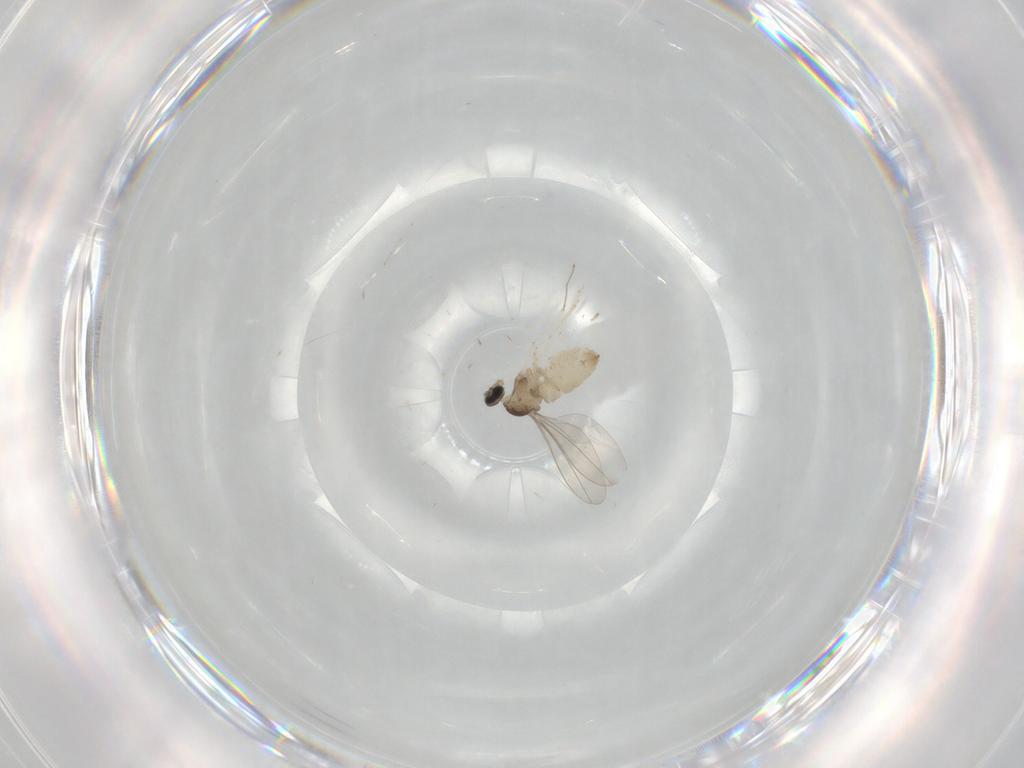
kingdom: Animalia
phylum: Arthropoda
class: Insecta
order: Diptera
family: Cecidomyiidae
